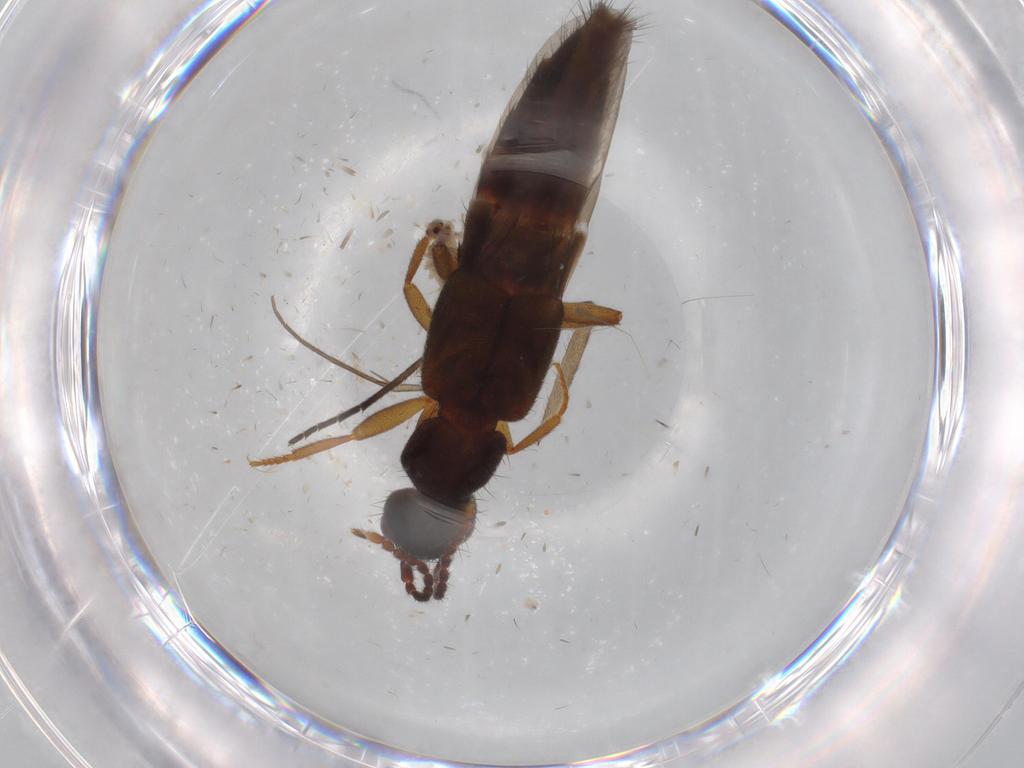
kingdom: Animalia
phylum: Arthropoda
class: Insecta
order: Coleoptera
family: Staphylinidae
